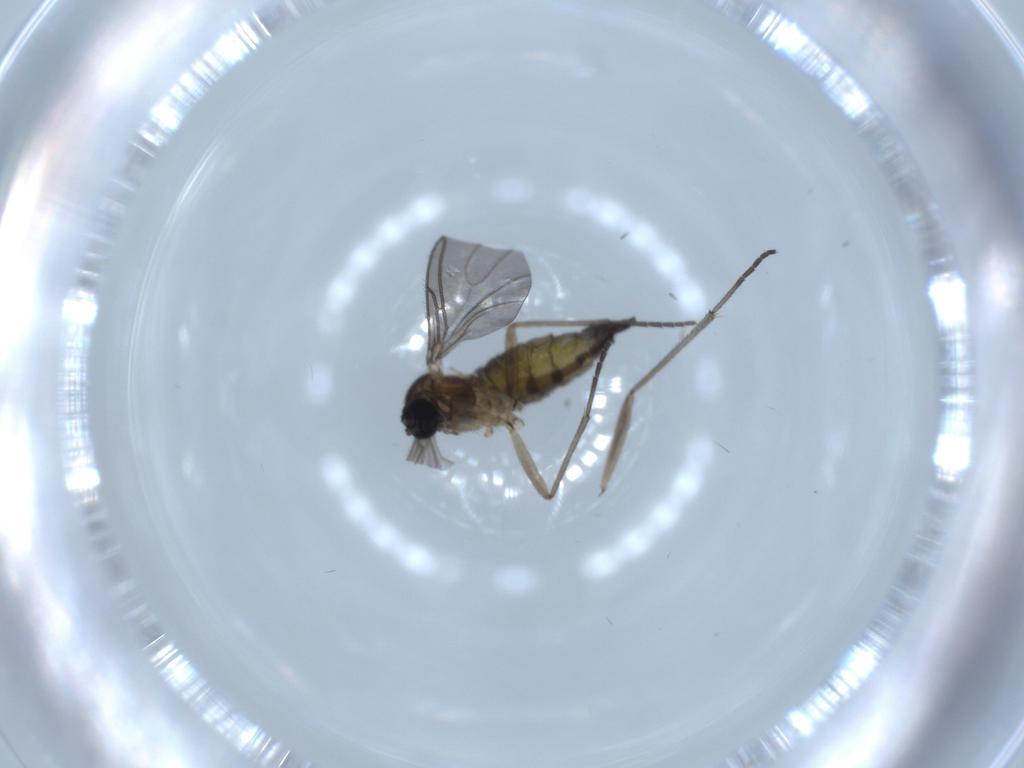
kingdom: Animalia
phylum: Arthropoda
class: Insecta
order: Diptera
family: Sciaridae
